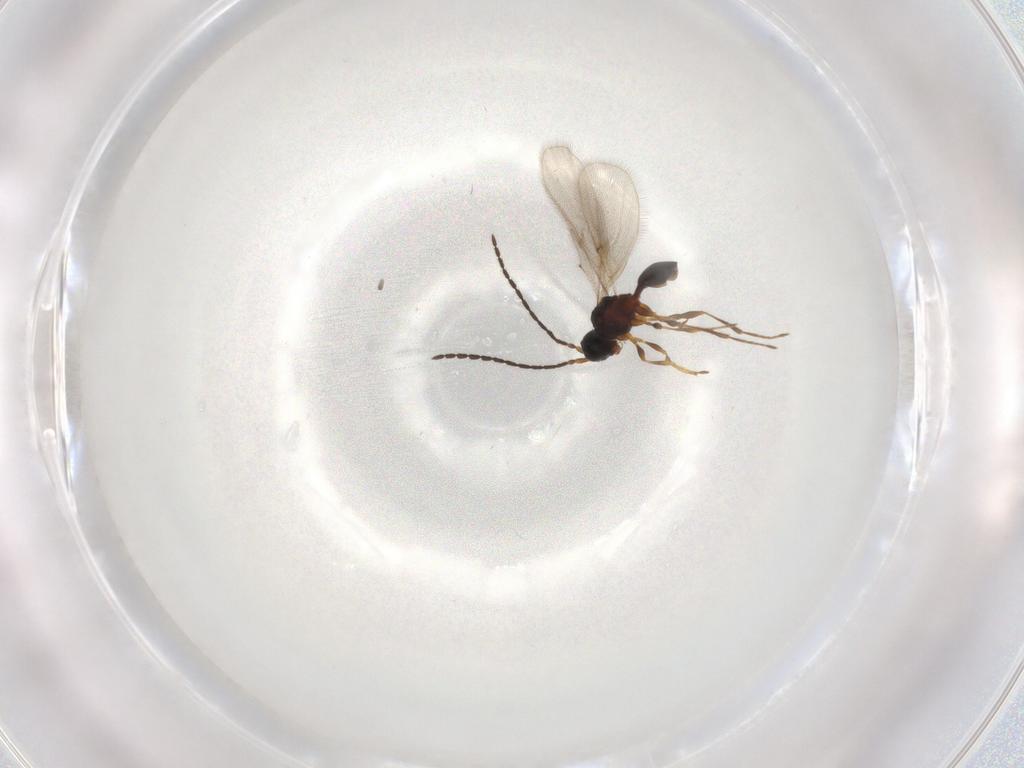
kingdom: Animalia
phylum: Arthropoda
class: Insecta
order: Hymenoptera
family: Diapriidae
